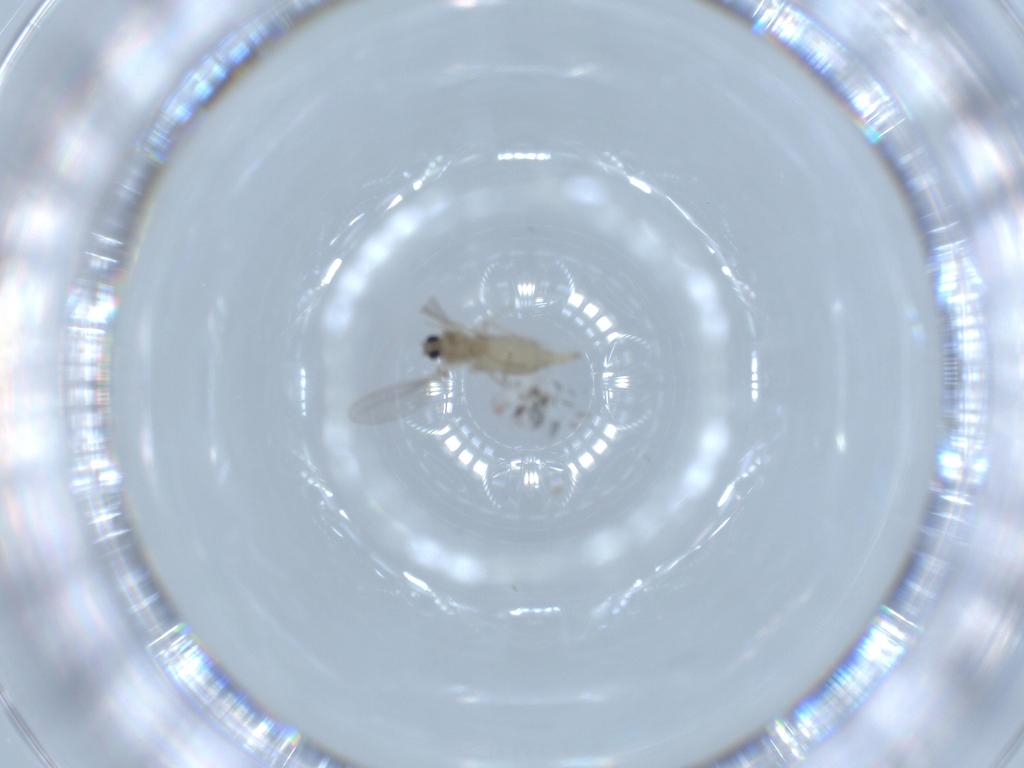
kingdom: Animalia
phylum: Arthropoda
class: Insecta
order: Diptera
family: Cecidomyiidae
